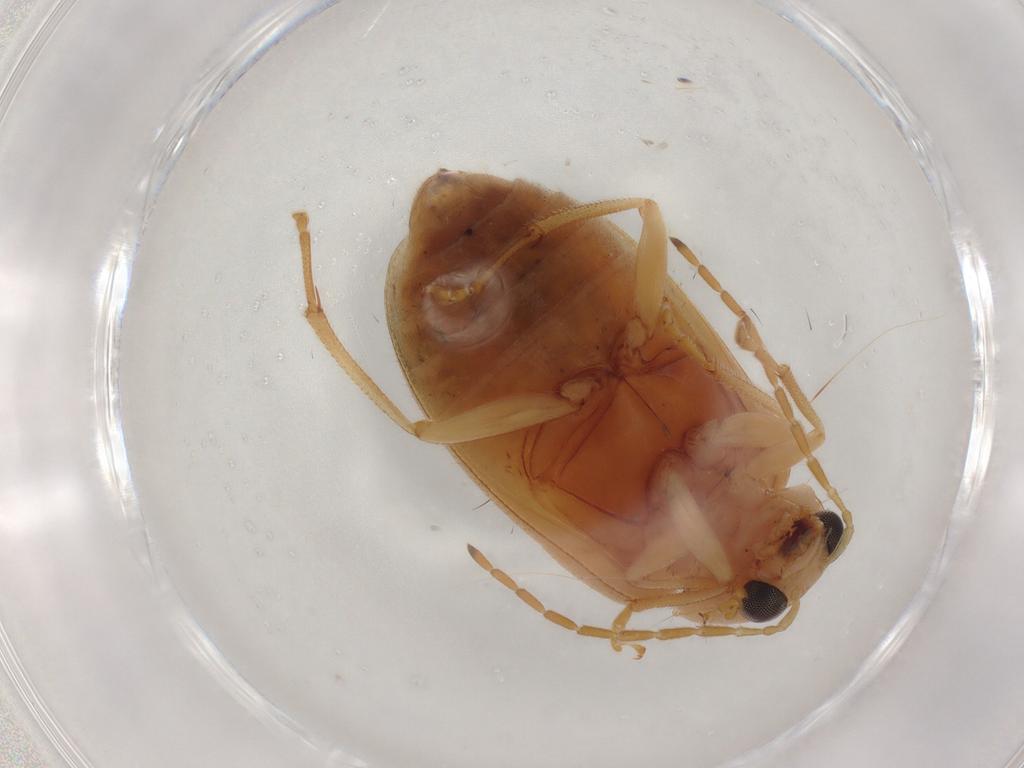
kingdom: Animalia
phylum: Arthropoda
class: Insecta
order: Coleoptera
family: Chrysomelidae
